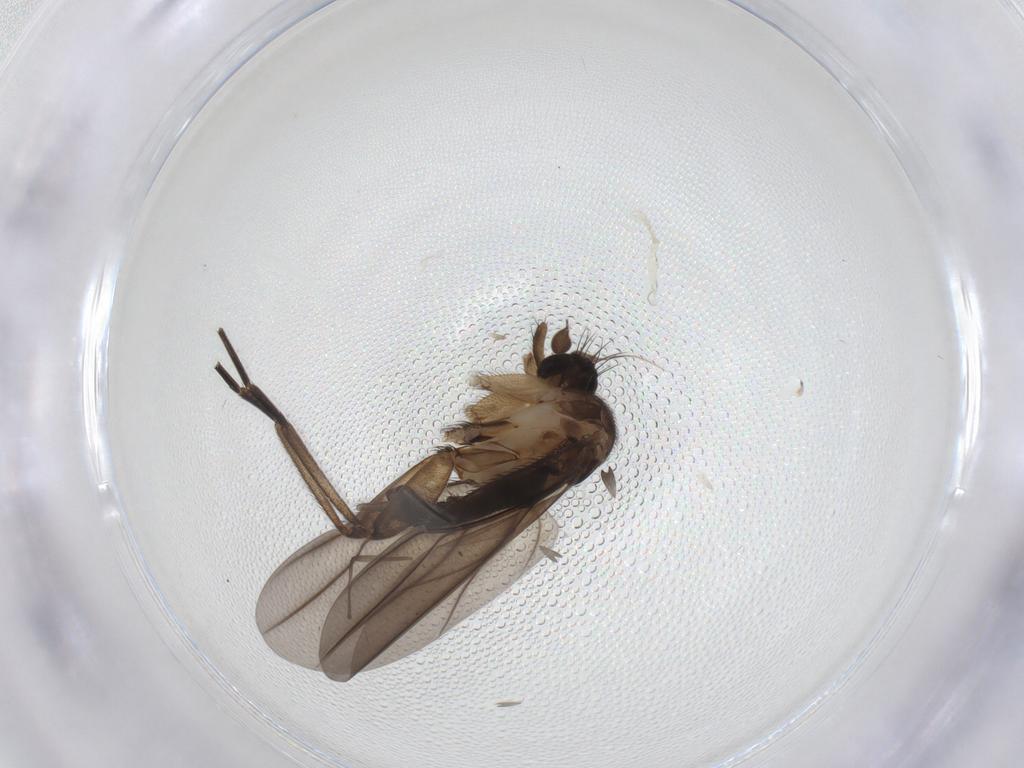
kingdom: Animalia
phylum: Arthropoda
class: Insecta
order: Diptera
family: Phoridae
